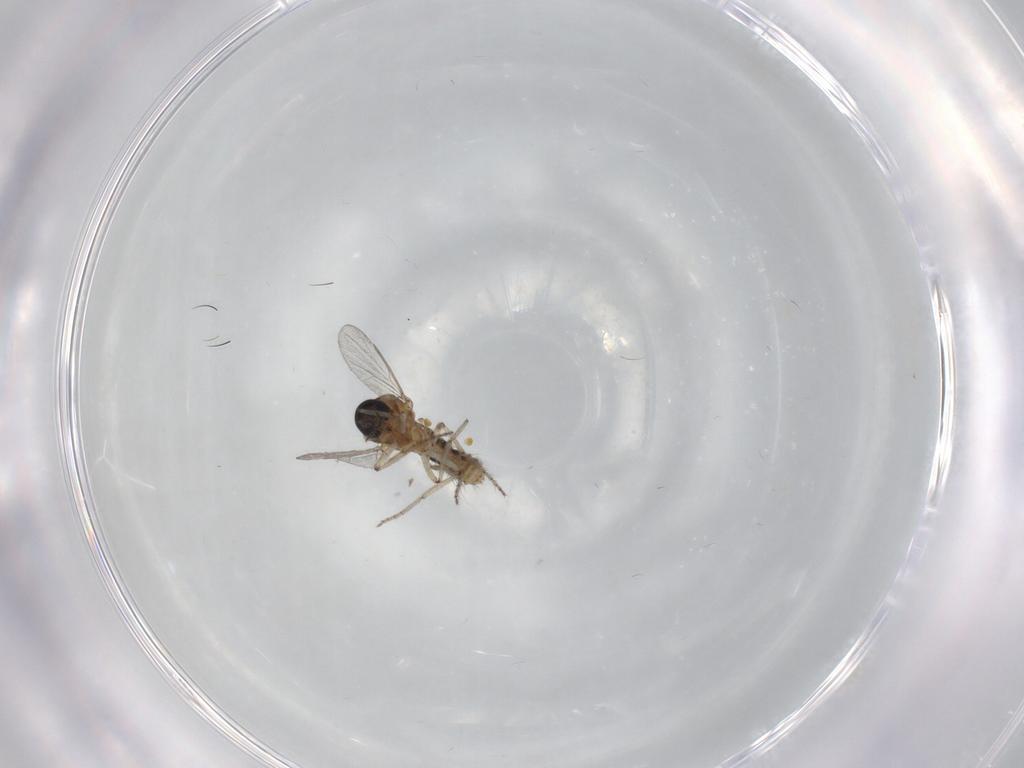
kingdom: Animalia
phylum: Arthropoda
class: Insecta
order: Diptera
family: Ceratopogonidae
